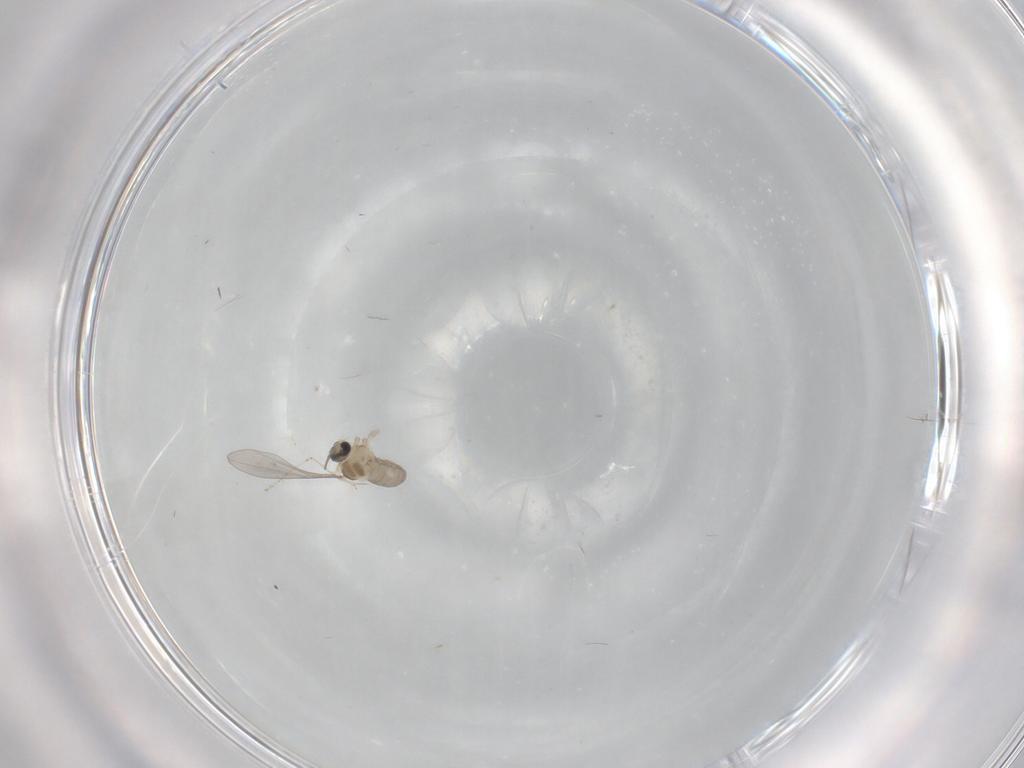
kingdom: Animalia
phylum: Arthropoda
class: Insecta
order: Diptera
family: Cecidomyiidae
